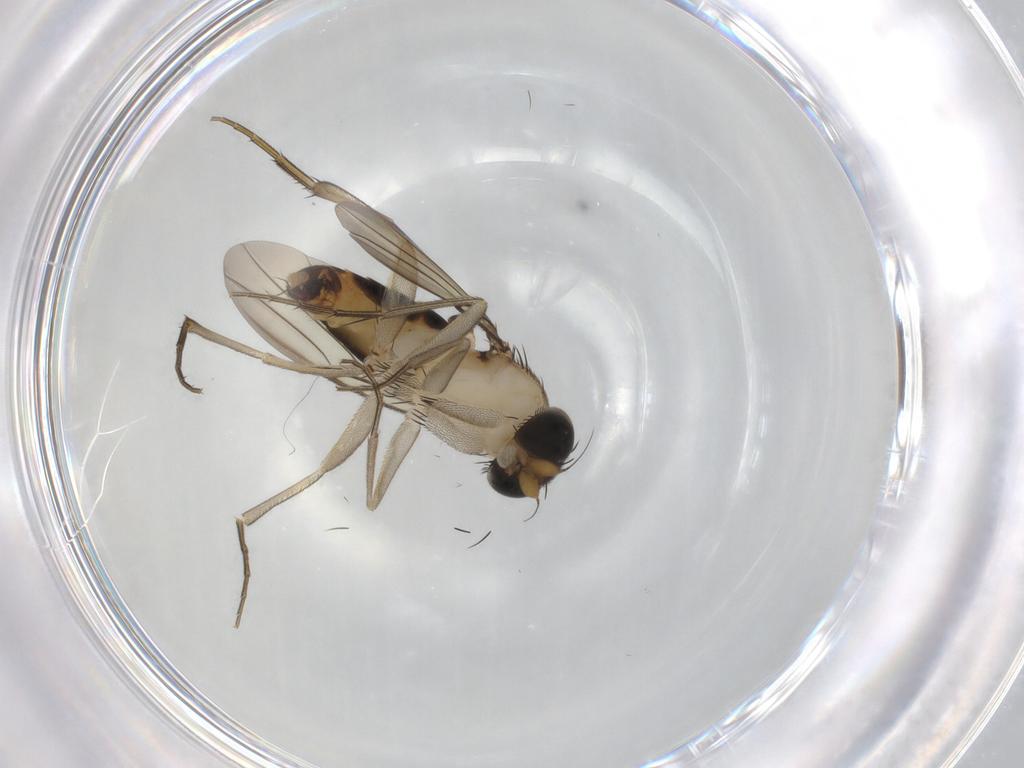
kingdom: Animalia
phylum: Arthropoda
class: Insecta
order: Diptera
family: Phoridae
